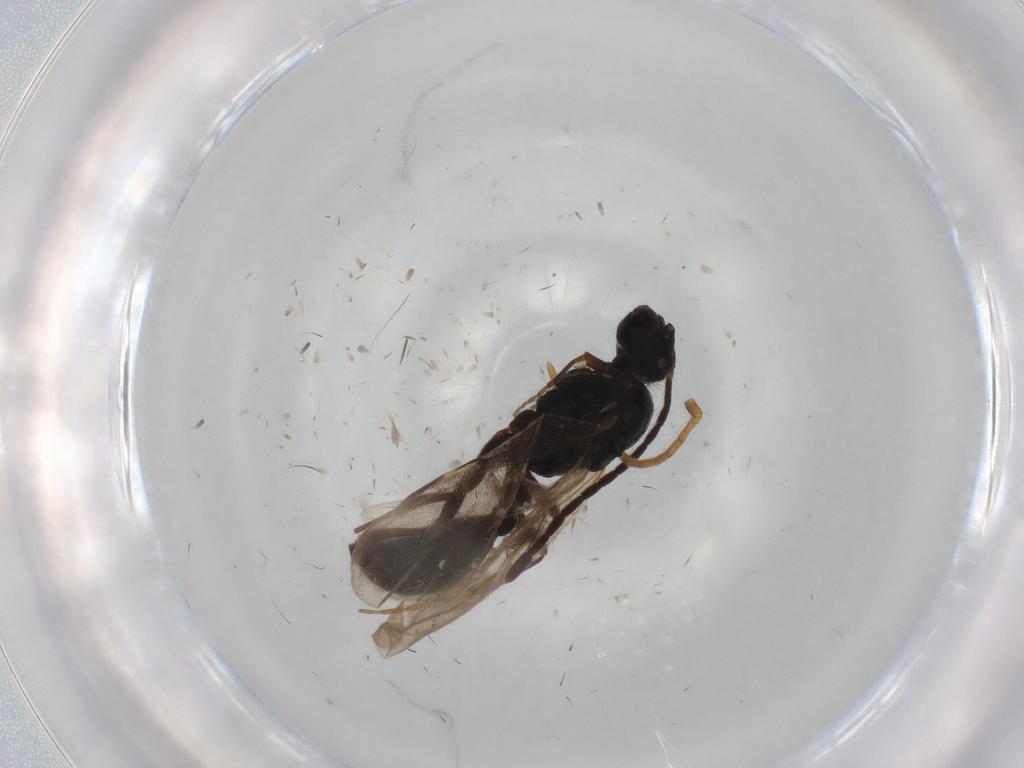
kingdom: Animalia
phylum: Arthropoda
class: Insecta
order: Hymenoptera
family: Formicidae
